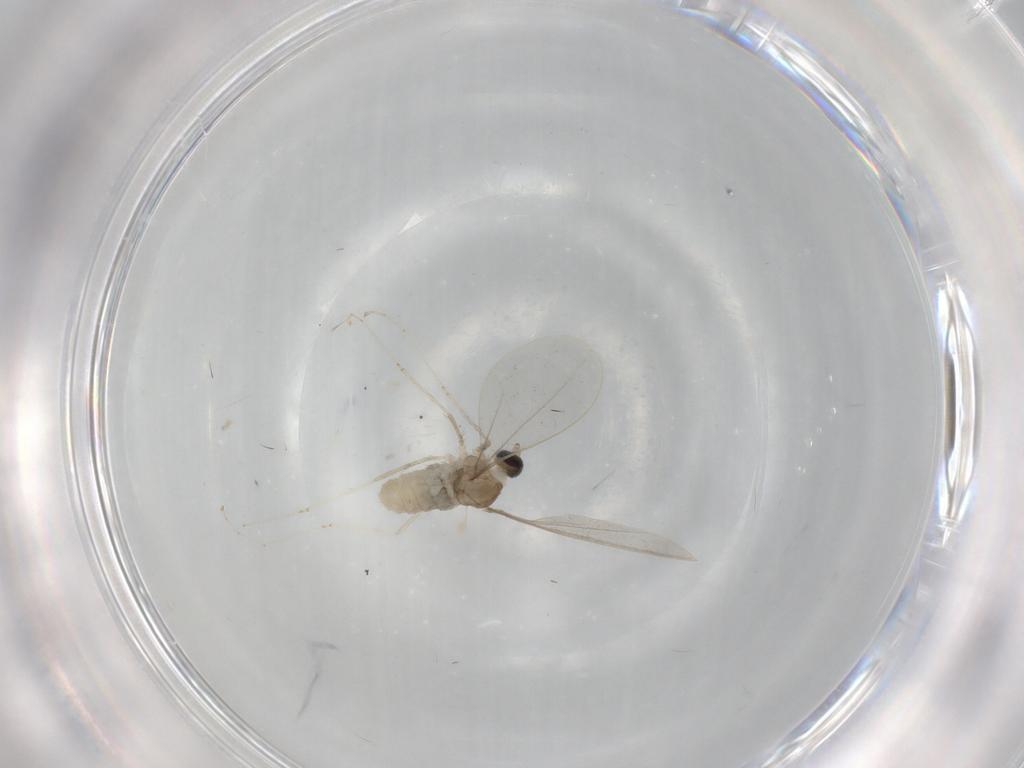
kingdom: Animalia
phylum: Arthropoda
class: Insecta
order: Diptera
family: Cecidomyiidae
